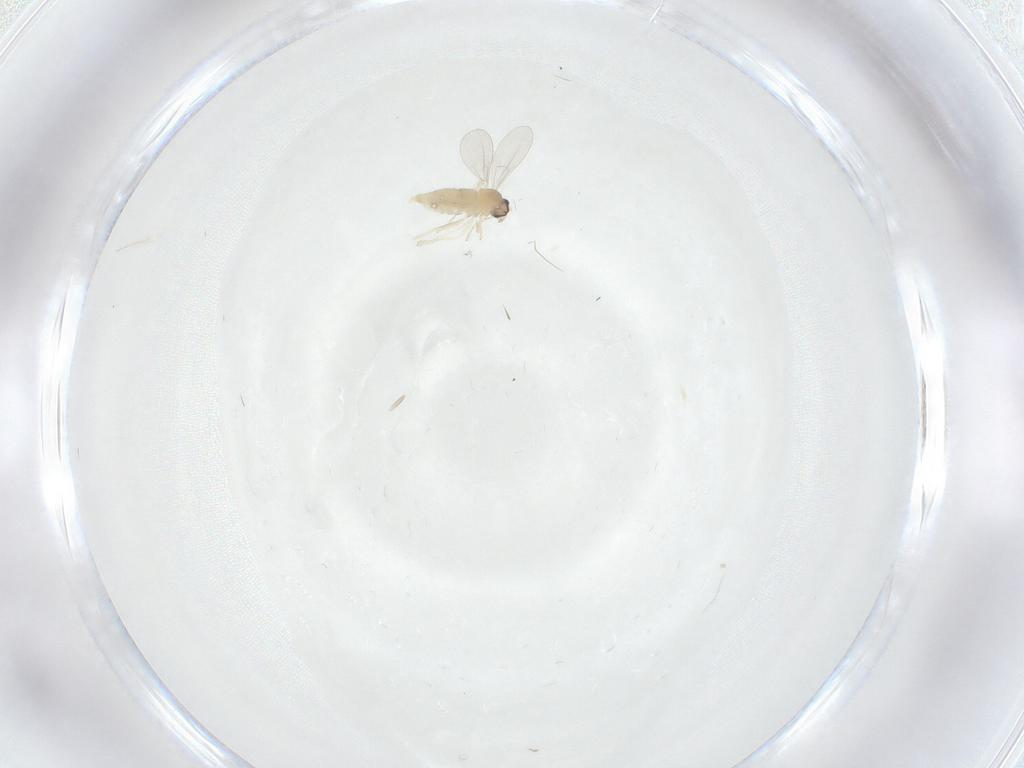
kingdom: Animalia
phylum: Arthropoda
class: Insecta
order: Diptera
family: Cecidomyiidae
